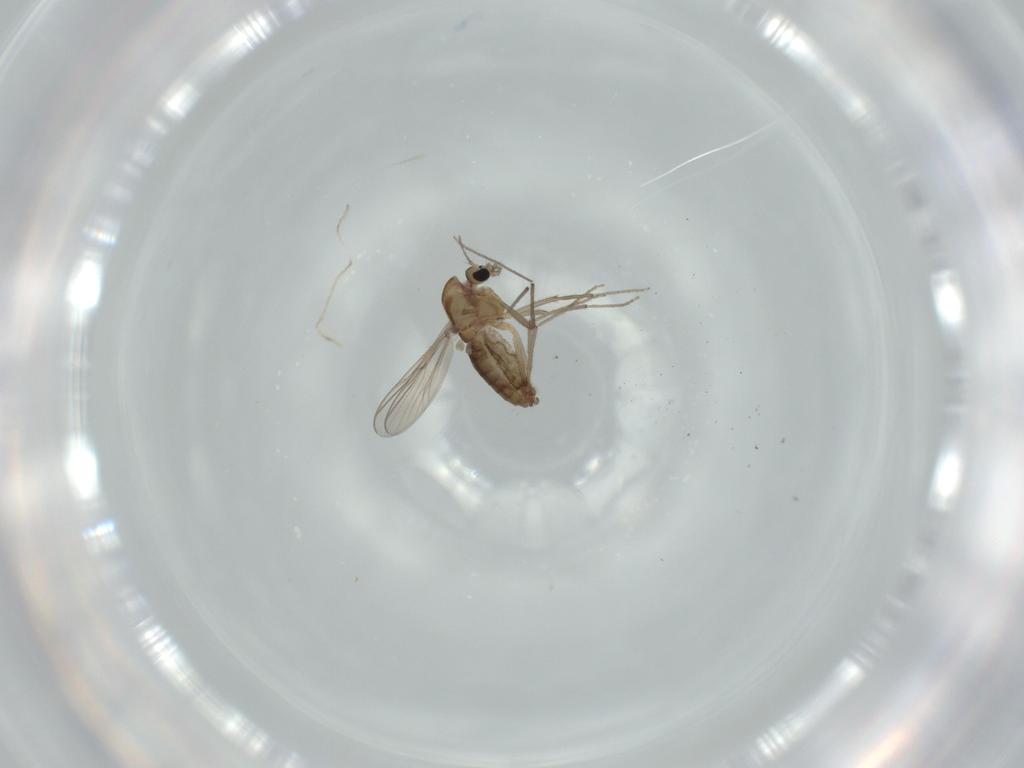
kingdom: Animalia
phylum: Arthropoda
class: Insecta
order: Diptera
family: Chironomidae
